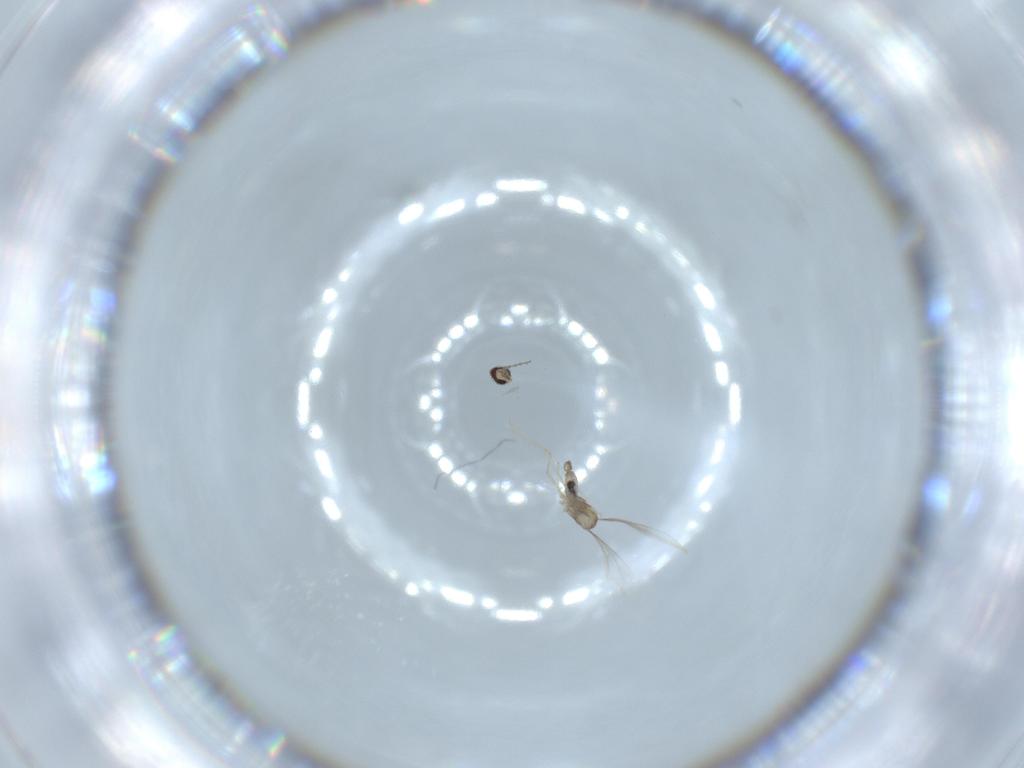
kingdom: Animalia
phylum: Arthropoda
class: Insecta
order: Diptera
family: Cecidomyiidae
